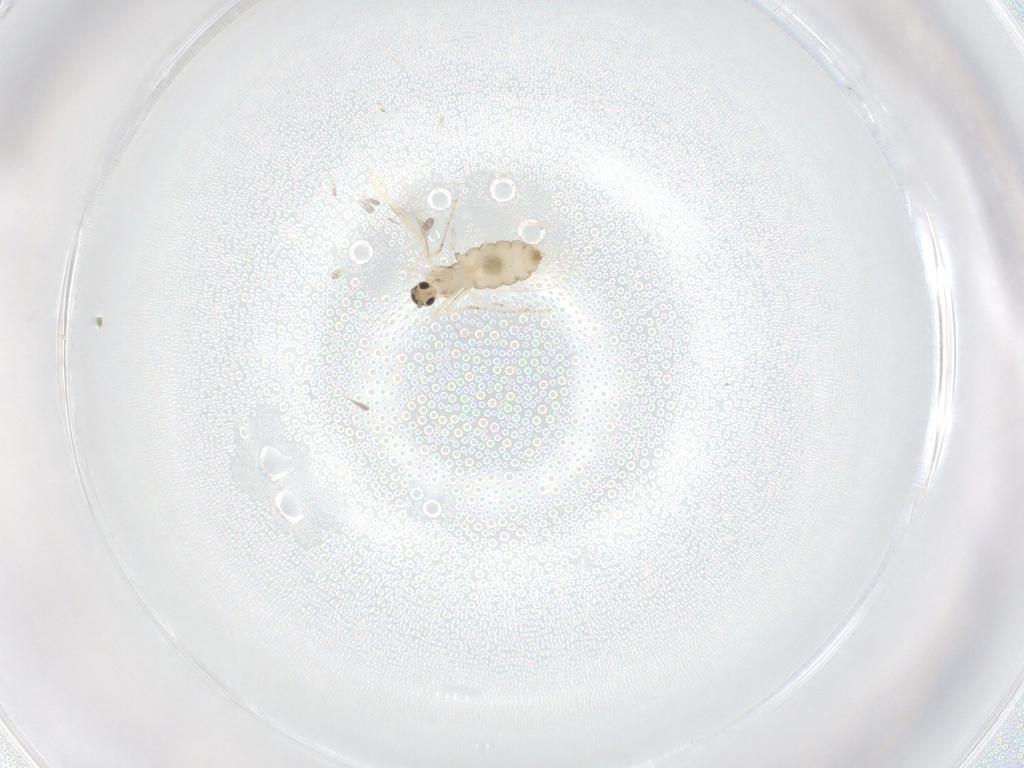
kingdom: Animalia
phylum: Arthropoda
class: Insecta
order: Diptera
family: Cecidomyiidae
